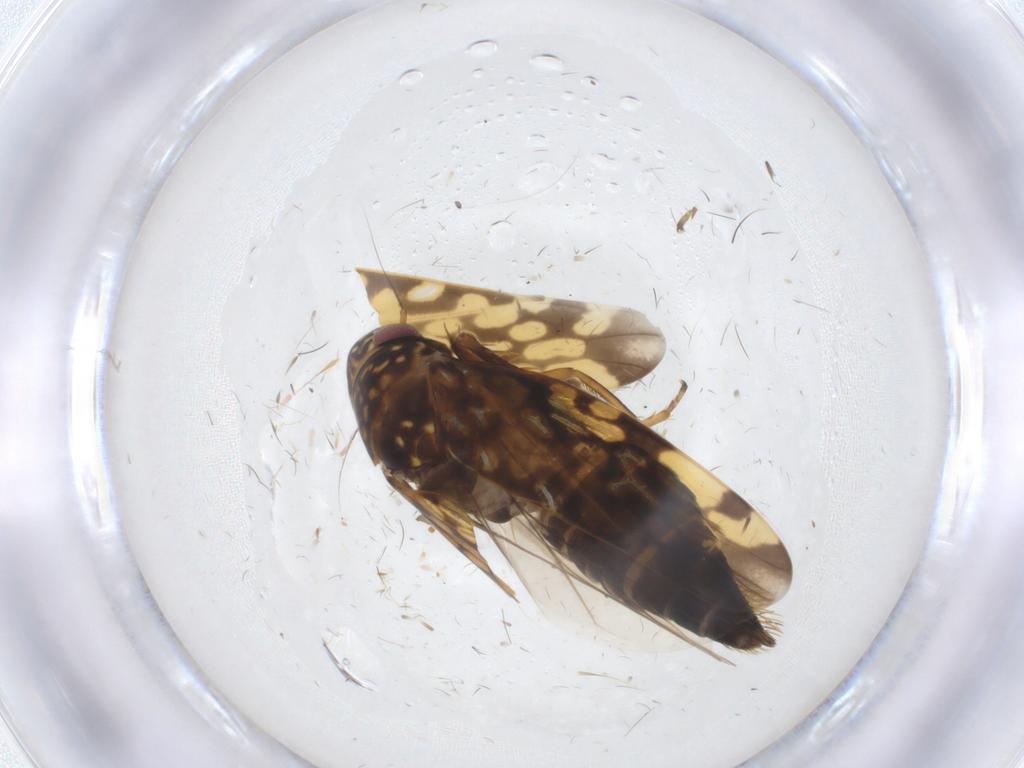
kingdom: Animalia
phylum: Arthropoda
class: Insecta
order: Hemiptera
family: Cicadellidae
